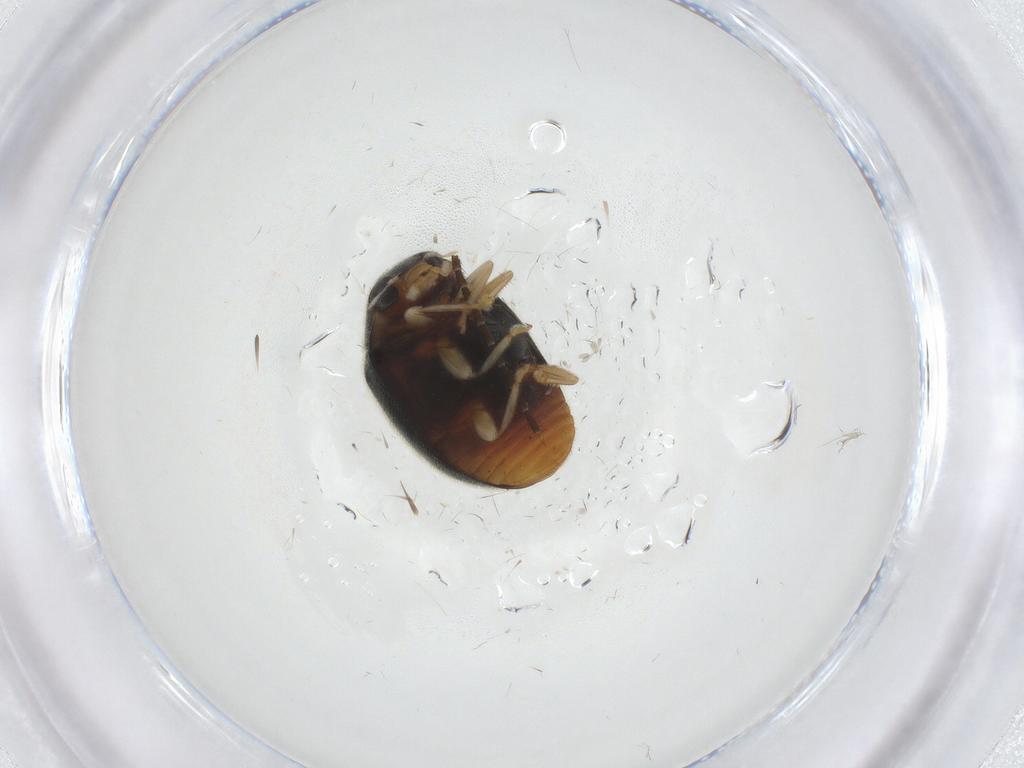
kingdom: Animalia
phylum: Arthropoda
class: Insecta
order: Coleoptera
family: Coccinellidae
